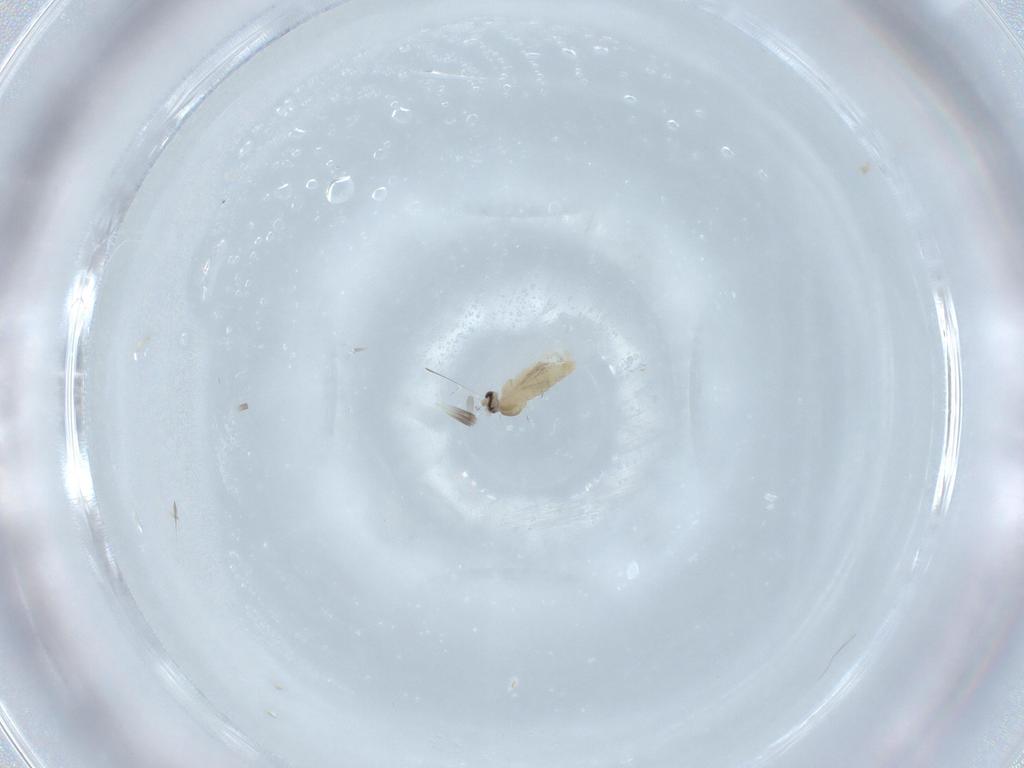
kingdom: Animalia
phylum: Arthropoda
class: Insecta
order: Diptera
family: Cecidomyiidae
